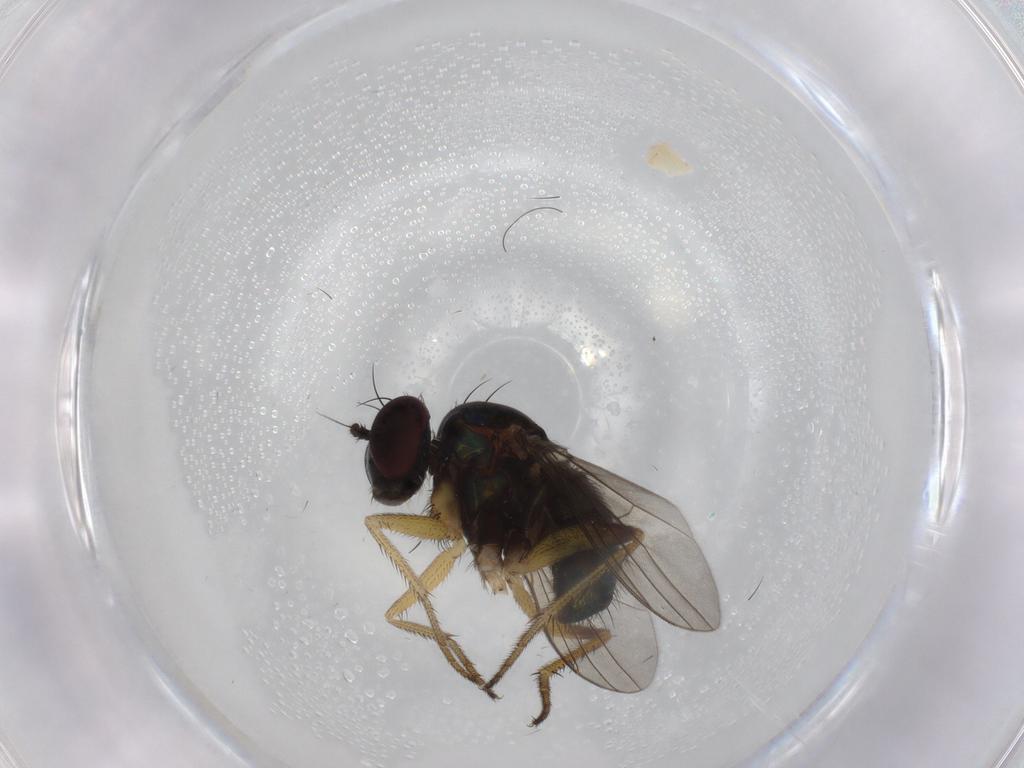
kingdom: Animalia
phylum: Arthropoda
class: Insecta
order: Diptera
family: Dolichopodidae
